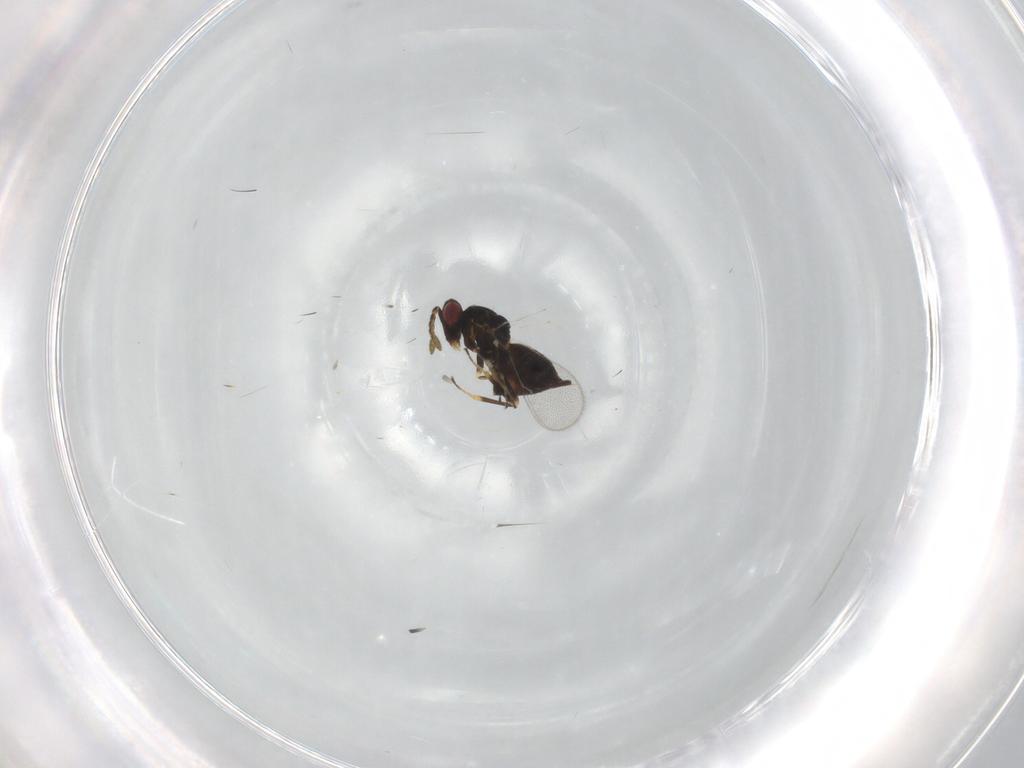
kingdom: Animalia
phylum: Arthropoda
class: Insecta
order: Hymenoptera
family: Eulophidae
